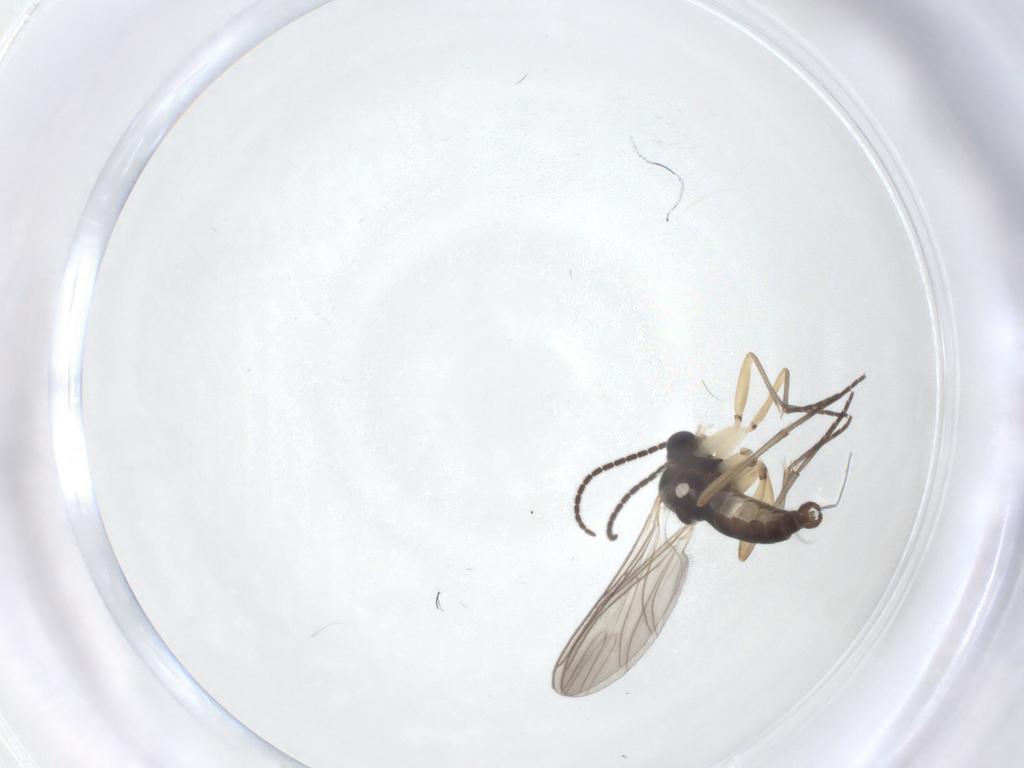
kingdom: Animalia
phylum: Arthropoda
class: Insecta
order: Diptera
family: Sciaridae
